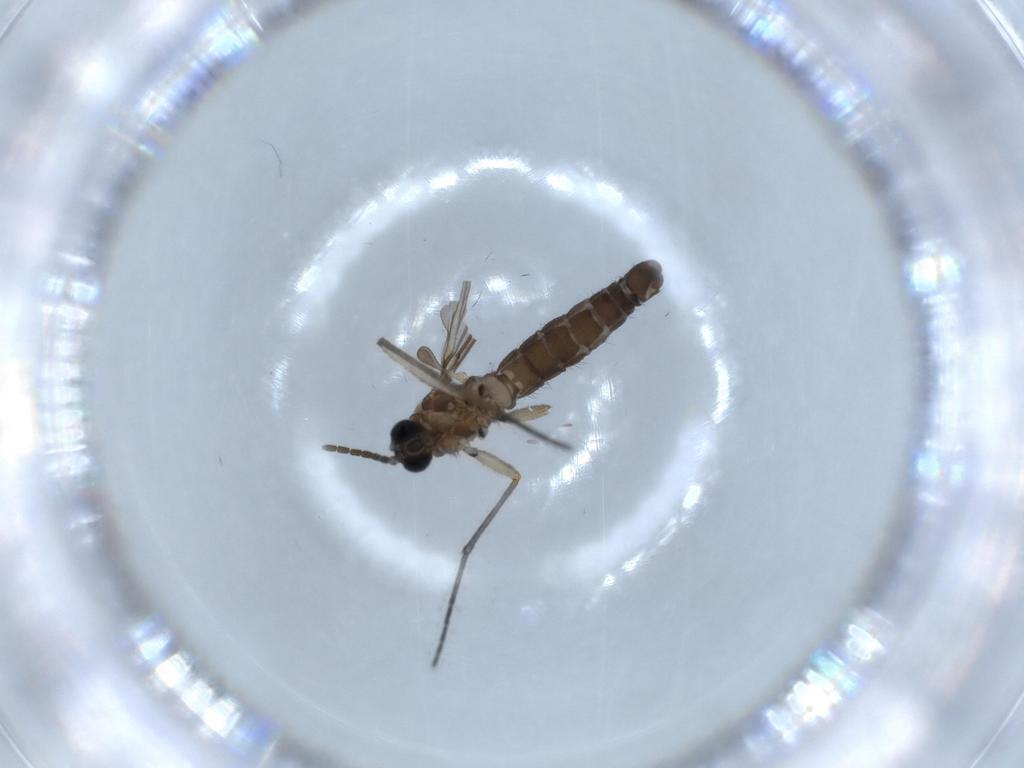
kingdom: Animalia
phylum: Arthropoda
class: Insecta
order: Diptera
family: Sciaridae
